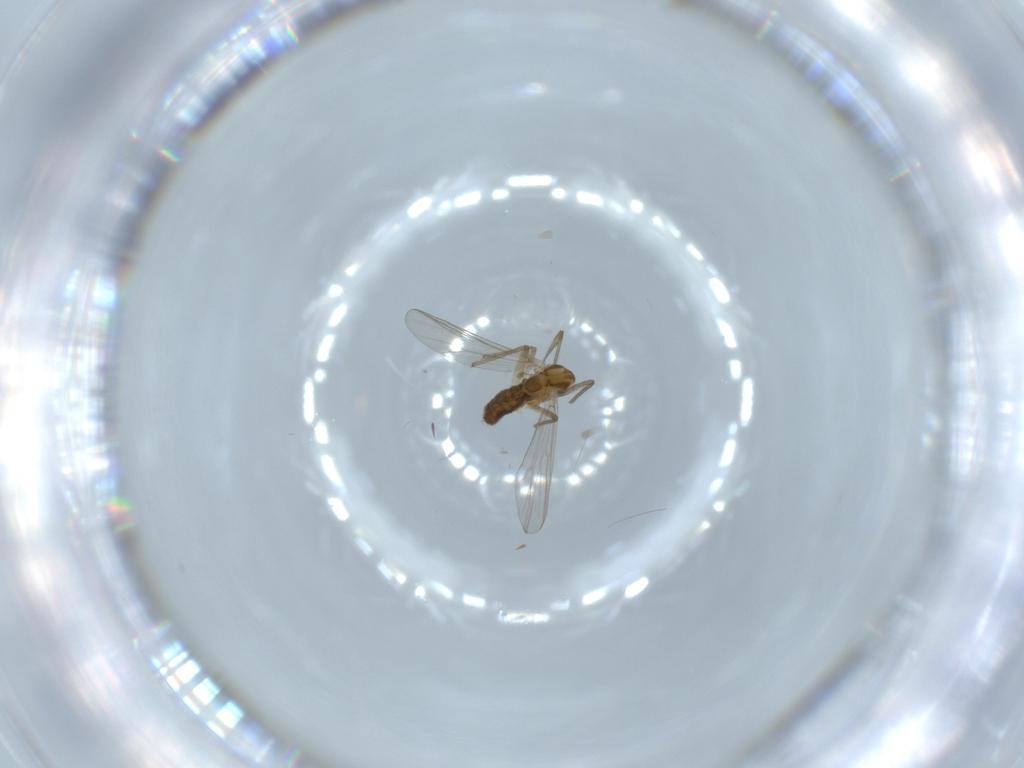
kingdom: Animalia
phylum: Arthropoda
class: Insecta
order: Diptera
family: Chironomidae
